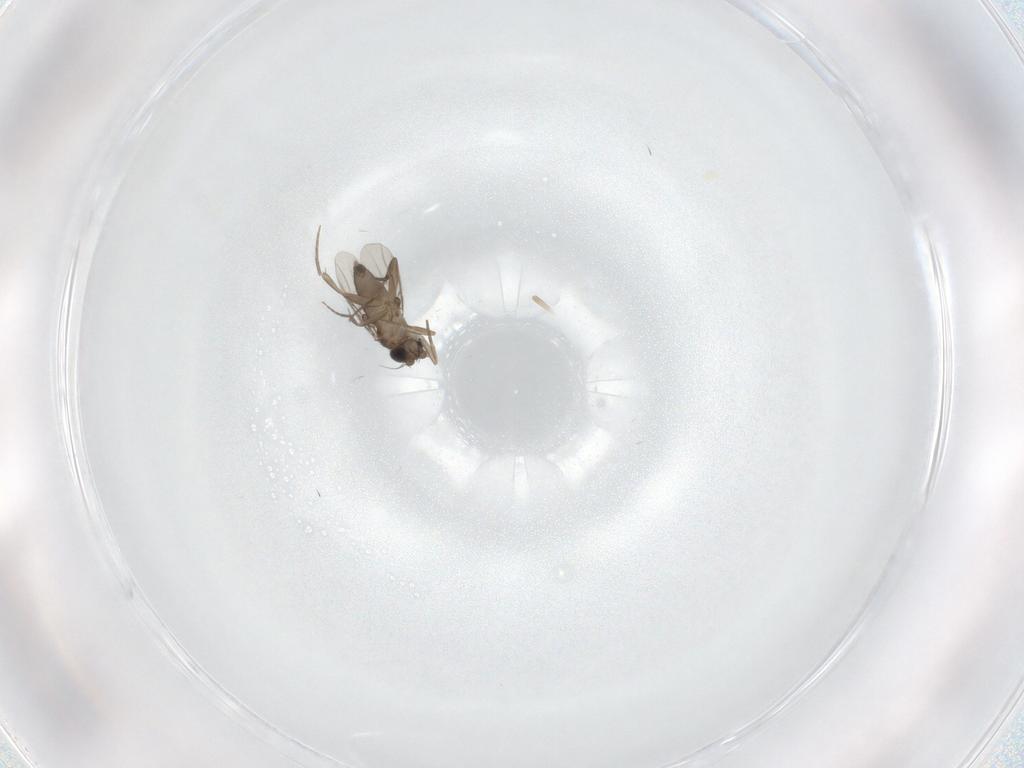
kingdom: Animalia
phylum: Arthropoda
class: Insecta
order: Diptera
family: Phoridae
